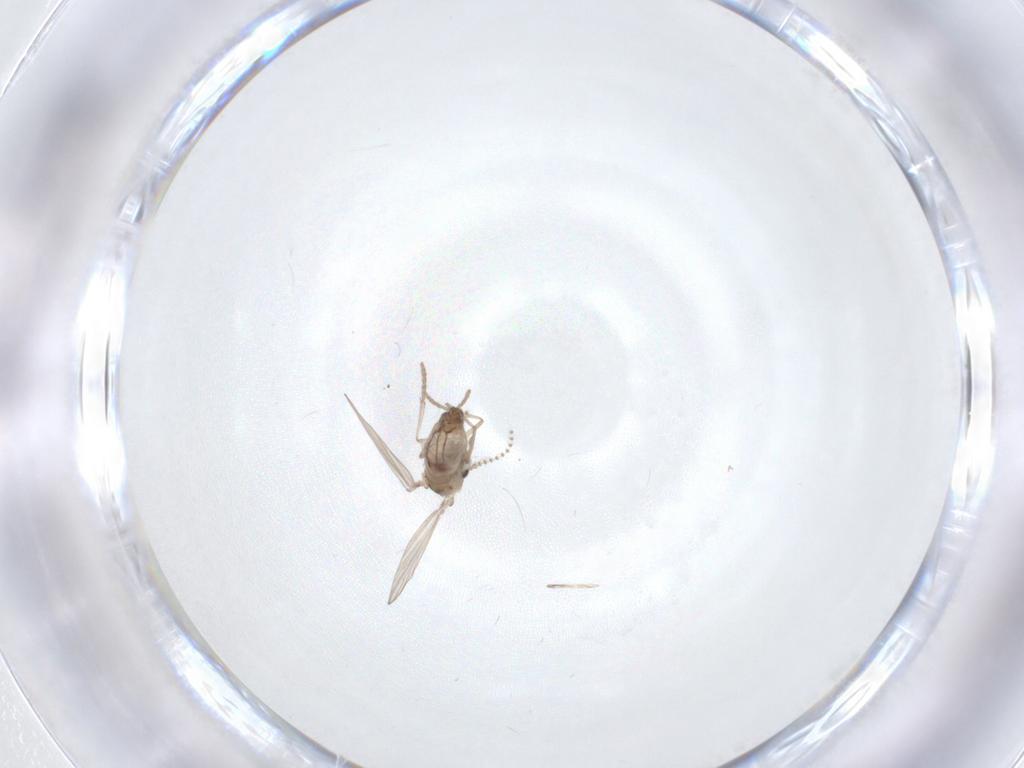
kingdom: Animalia
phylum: Arthropoda
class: Insecta
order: Diptera
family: Psychodidae
